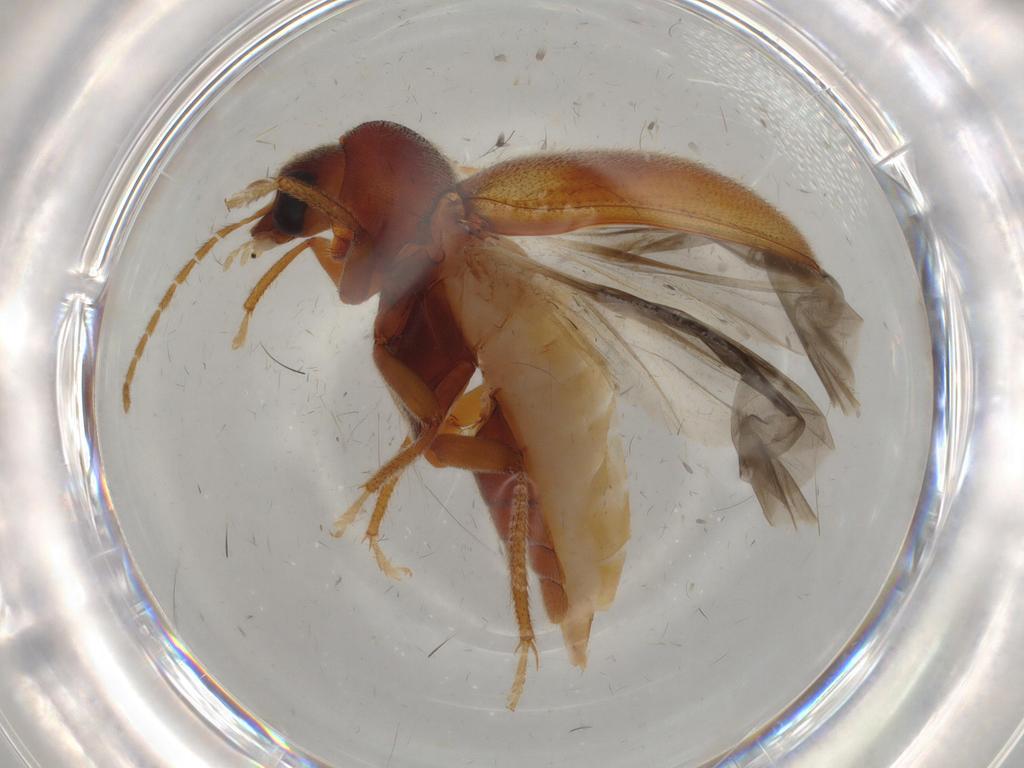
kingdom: Animalia
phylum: Arthropoda
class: Insecta
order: Coleoptera
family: Ptilodactylidae
